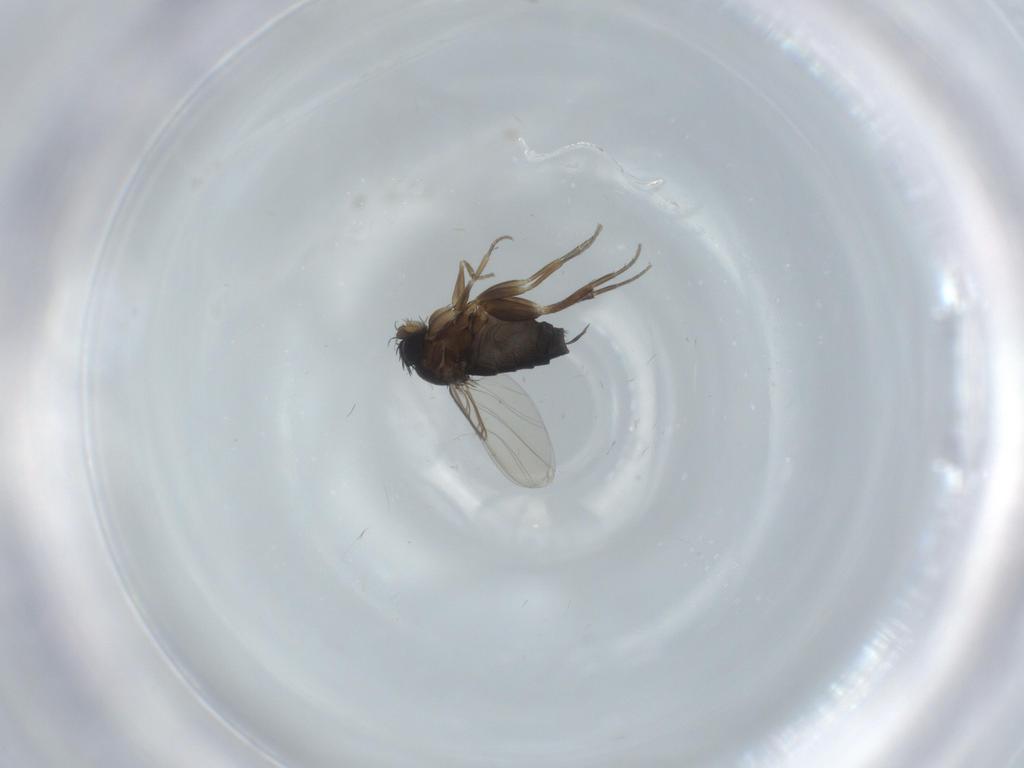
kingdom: Animalia
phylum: Arthropoda
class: Insecta
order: Diptera
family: Phoridae
